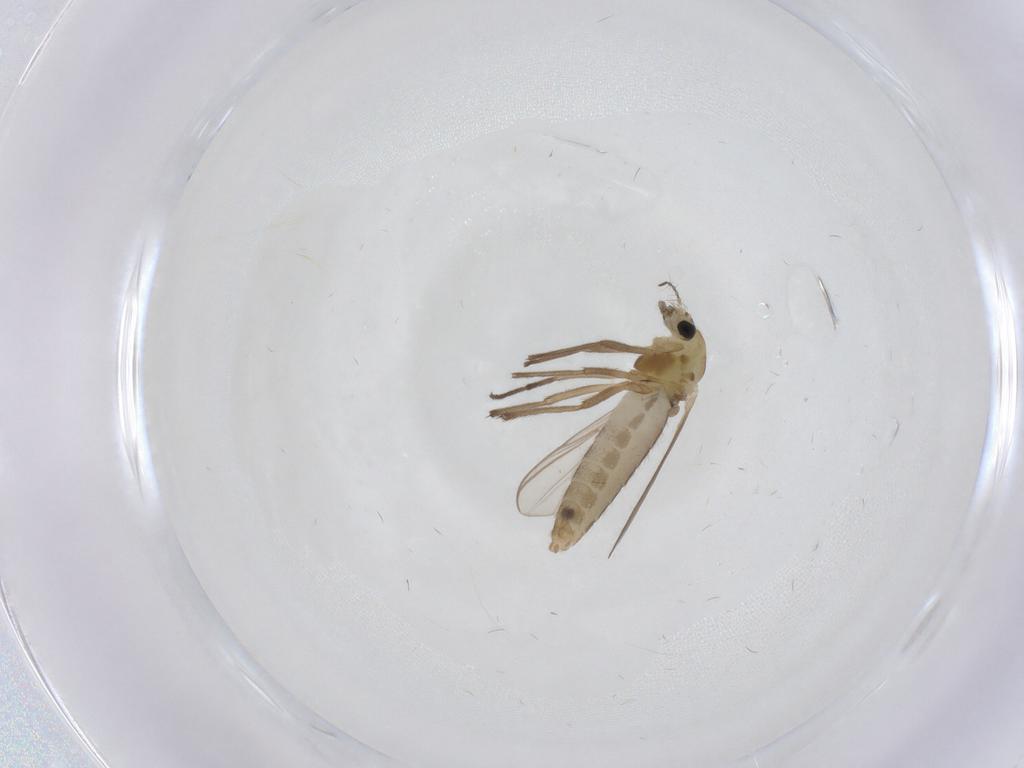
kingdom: Animalia
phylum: Arthropoda
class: Insecta
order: Diptera
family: Chironomidae
